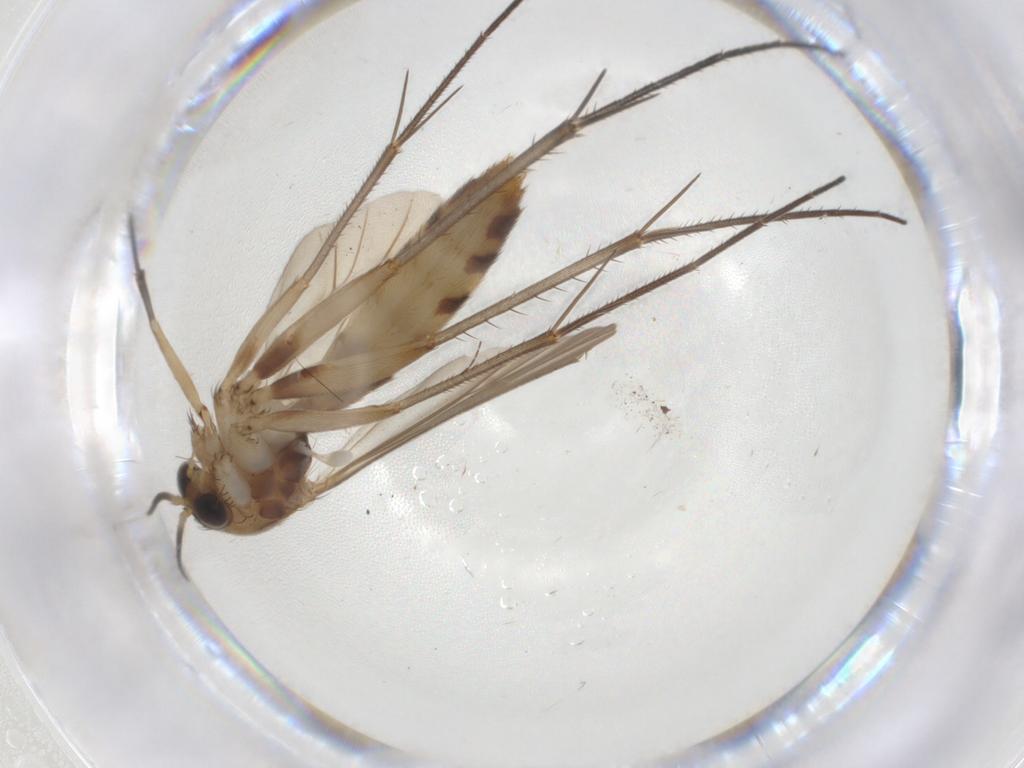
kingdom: Animalia
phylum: Arthropoda
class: Insecta
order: Diptera
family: Mycetophilidae
